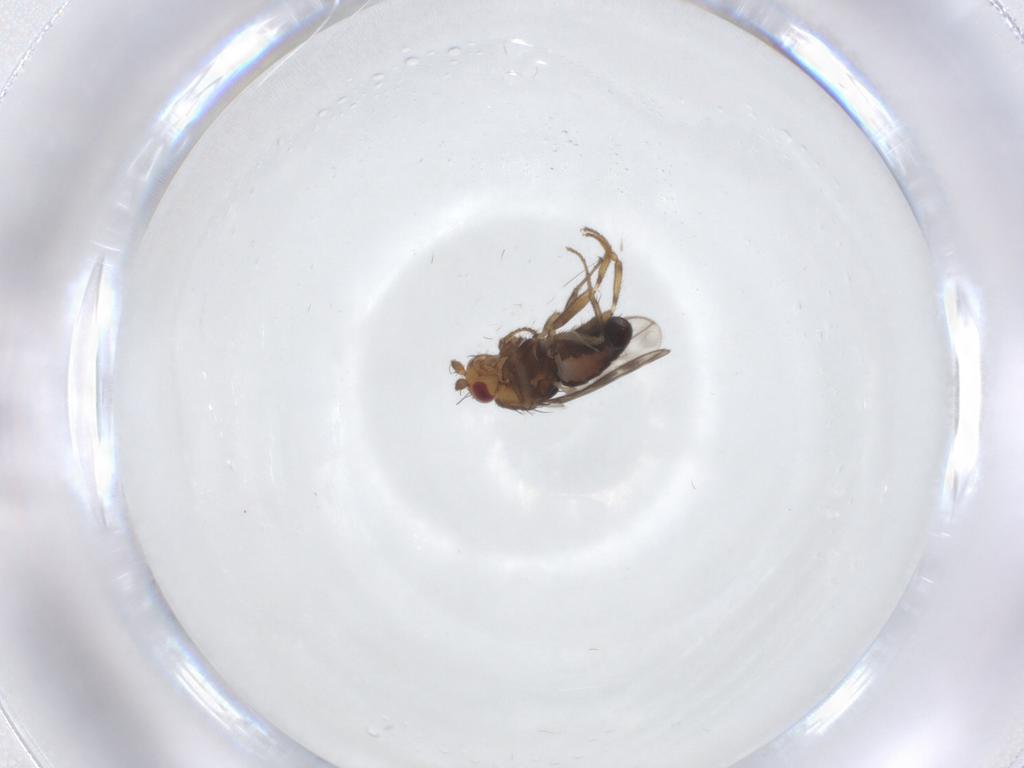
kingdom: Animalia
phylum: Arthropoda
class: Insecta
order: Diptera
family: Sphaeroceridae
